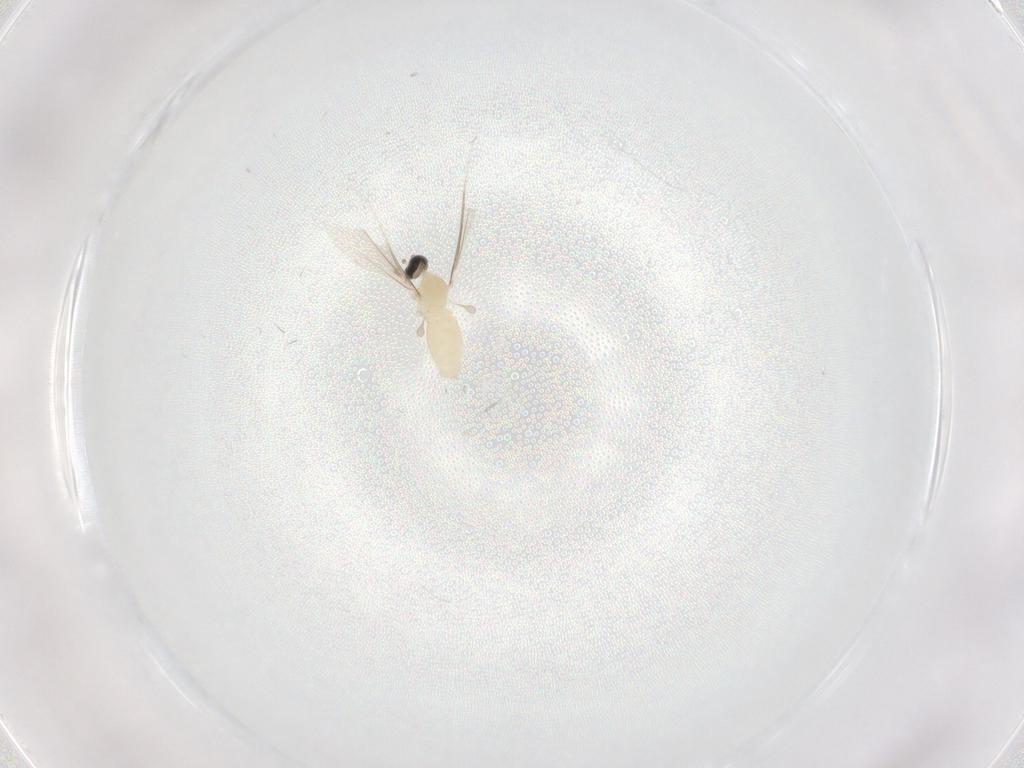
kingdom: Animalia
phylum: Arthropoda
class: Insecta
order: Diptera
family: Cecidomyiidae
